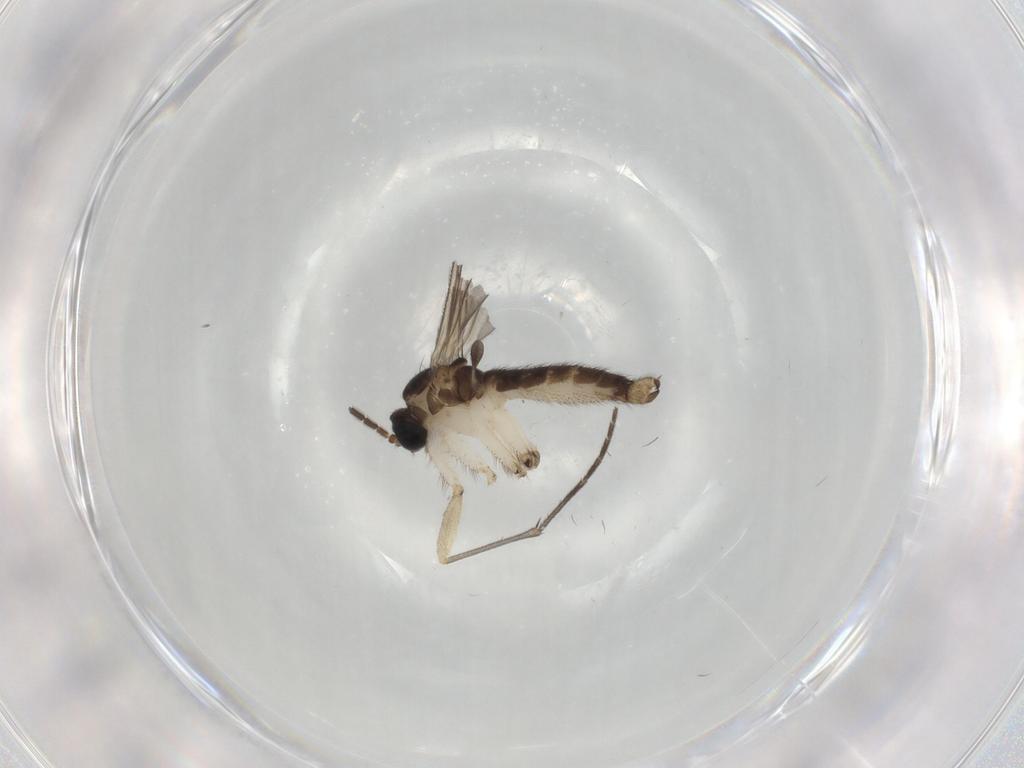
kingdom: Animalia
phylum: Arthropoda
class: Insecta
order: Diptera
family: Sciaridae
